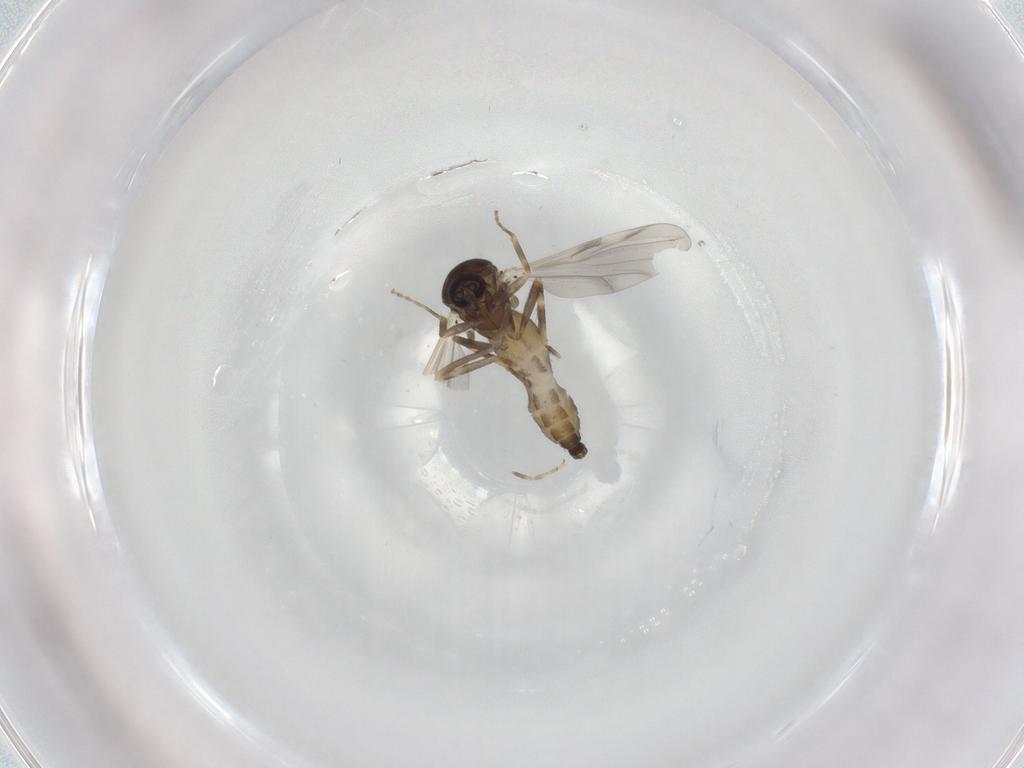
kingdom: Animalia
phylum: Arthropoda
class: Insecta
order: Diptera
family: Ceratopogonidae
